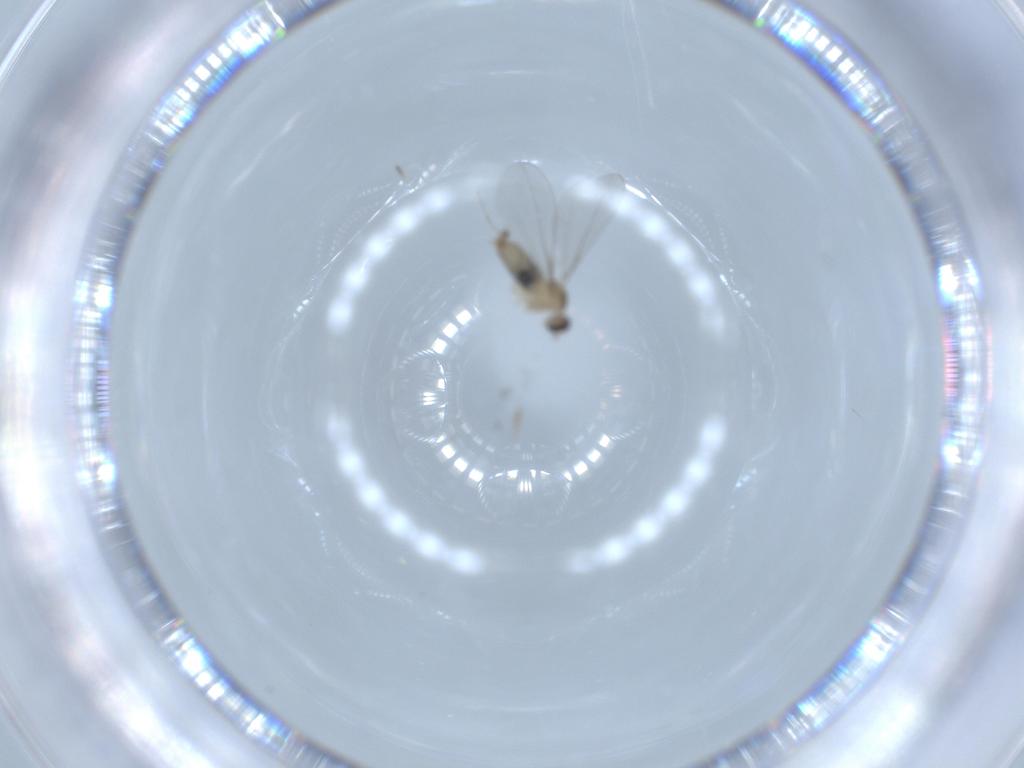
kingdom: Animalia
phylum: Arthropoda
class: Insecta
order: Diptera
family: Cecidomyiidae
